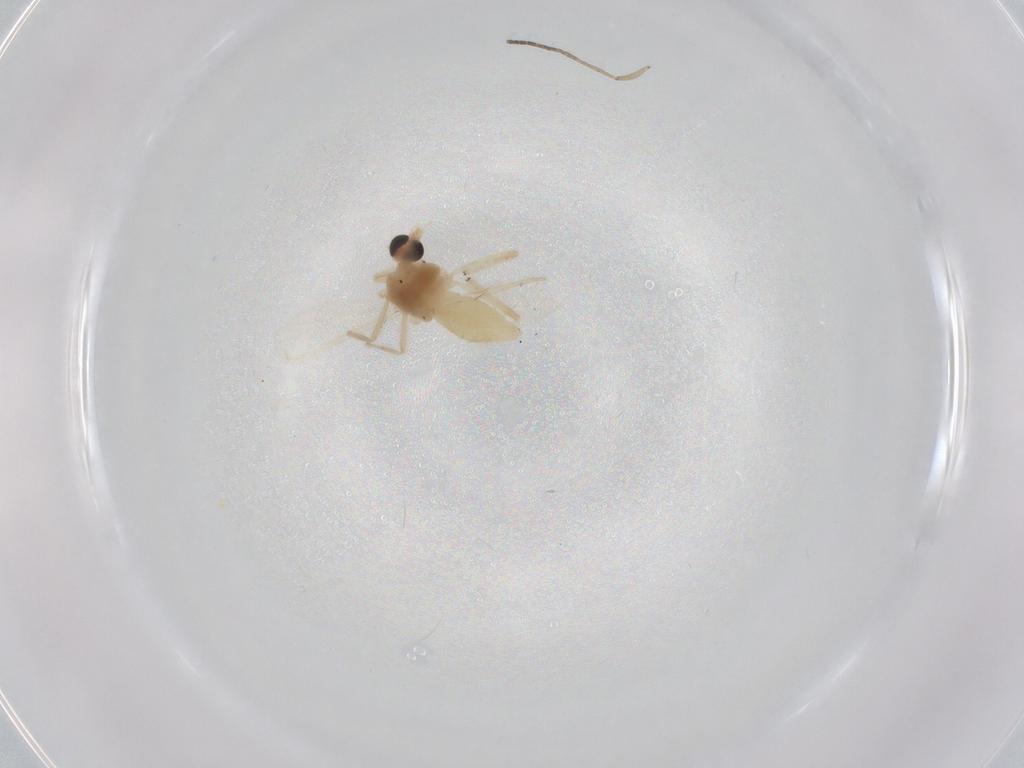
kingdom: Animalia
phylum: Arthropoda
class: Insecta
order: Diptera
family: Chironomidae
